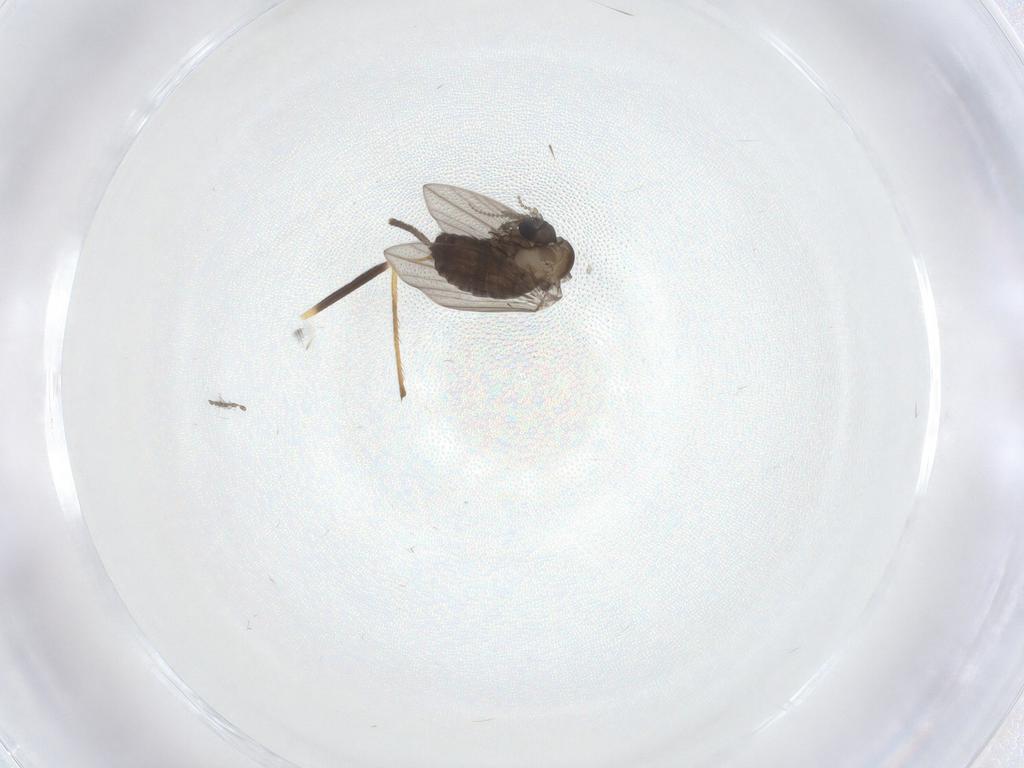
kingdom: Animalia
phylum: Arthropoda
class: Insecta
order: Diptera
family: Psychodidae
